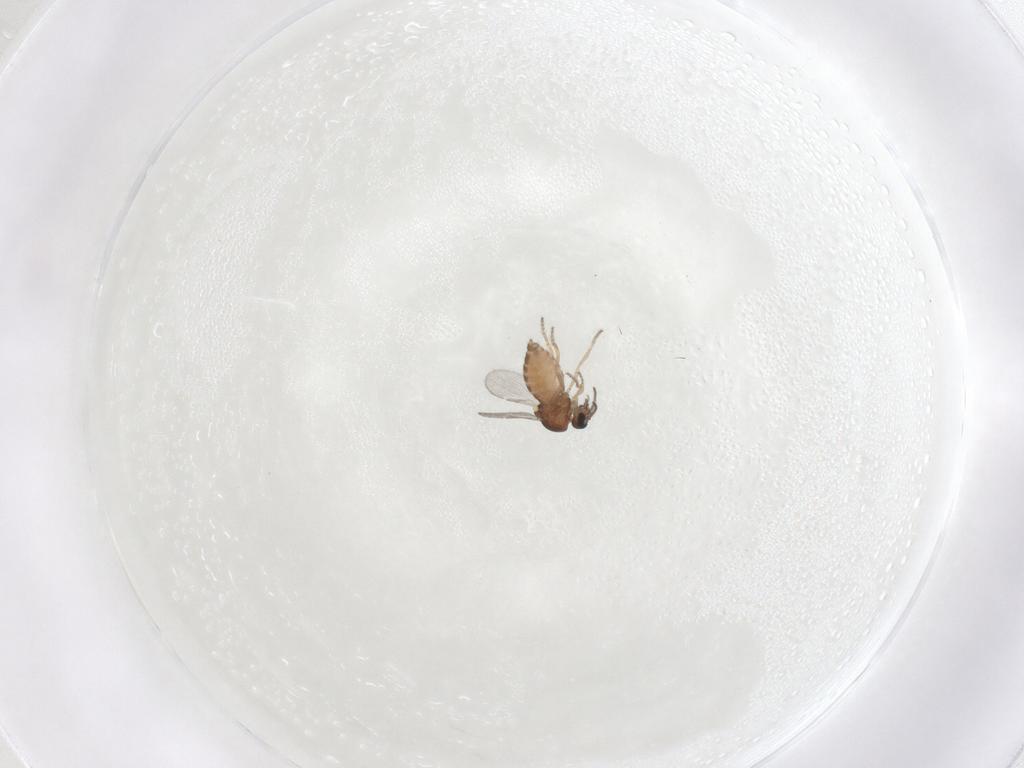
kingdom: Animalia
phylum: Arthropoda
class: Insecta
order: Diptera
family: Ceratopogonidae
